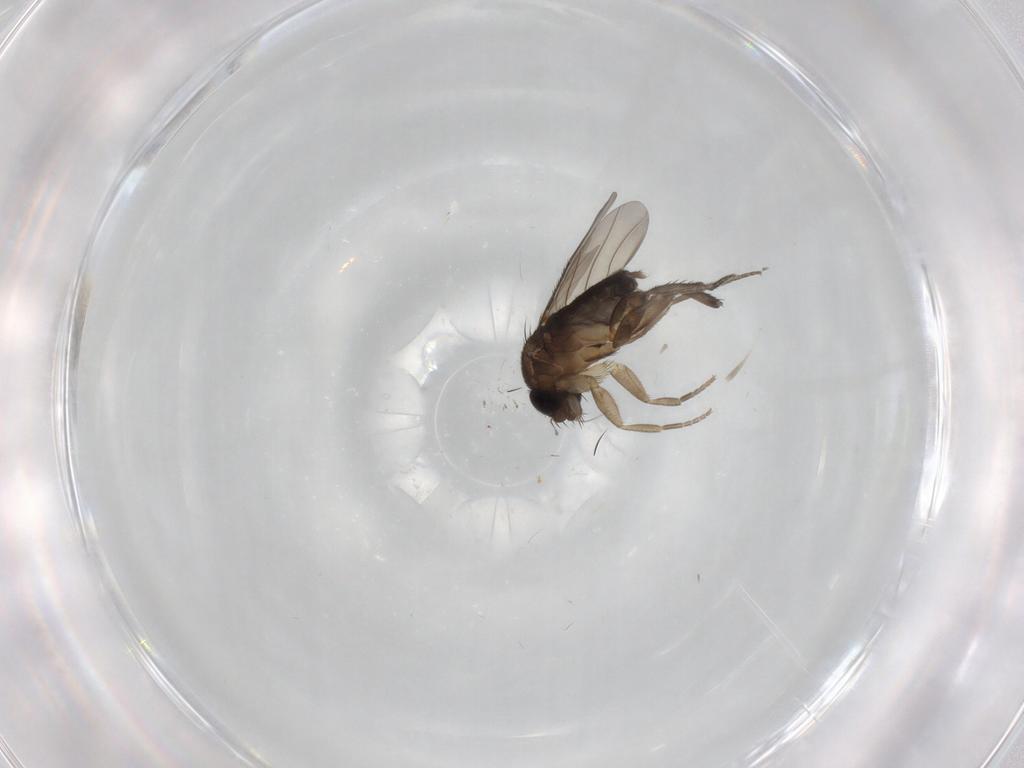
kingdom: Animalia
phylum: Arthropoda
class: Insecta
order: Diptera
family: Phoridae
